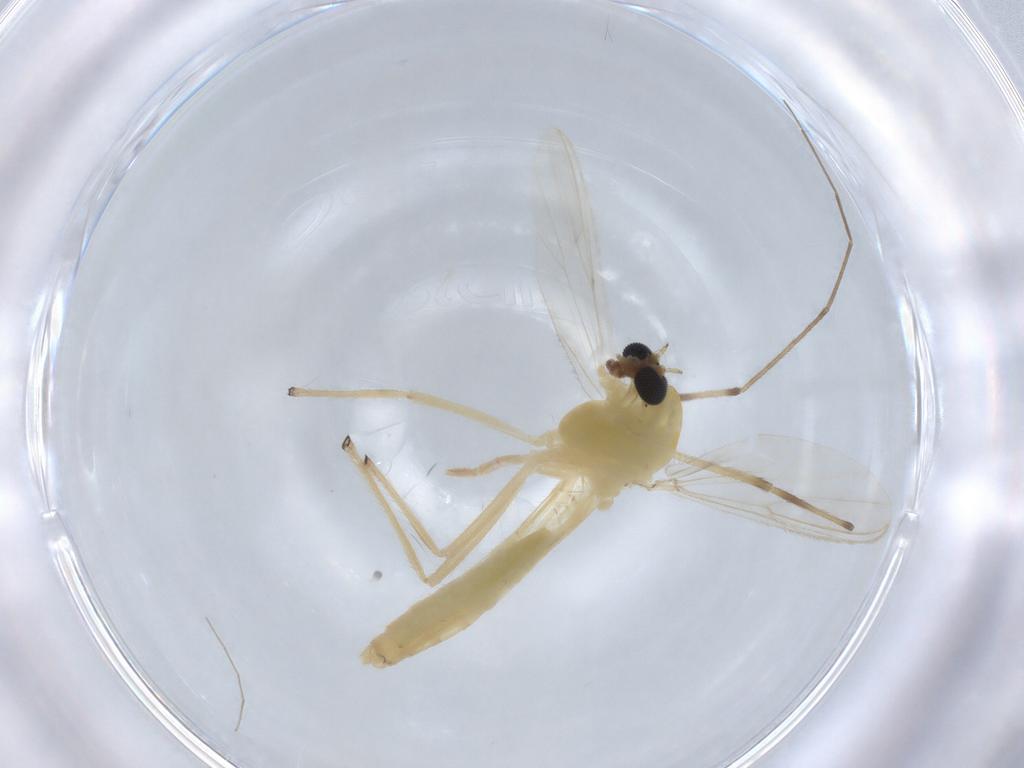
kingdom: Animalia
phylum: Arthropoda
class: Insecta
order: Diptera
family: Chironomidae
